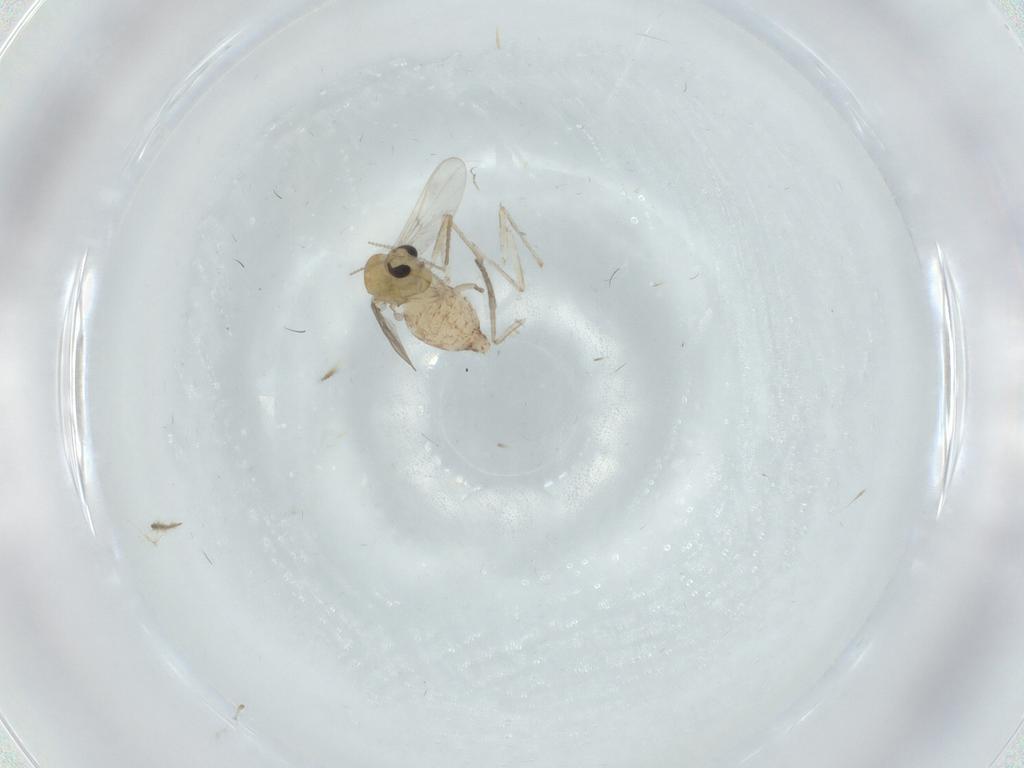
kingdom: Animalia
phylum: Arthropoda
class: Insecta
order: Diptera
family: Chironomidae
